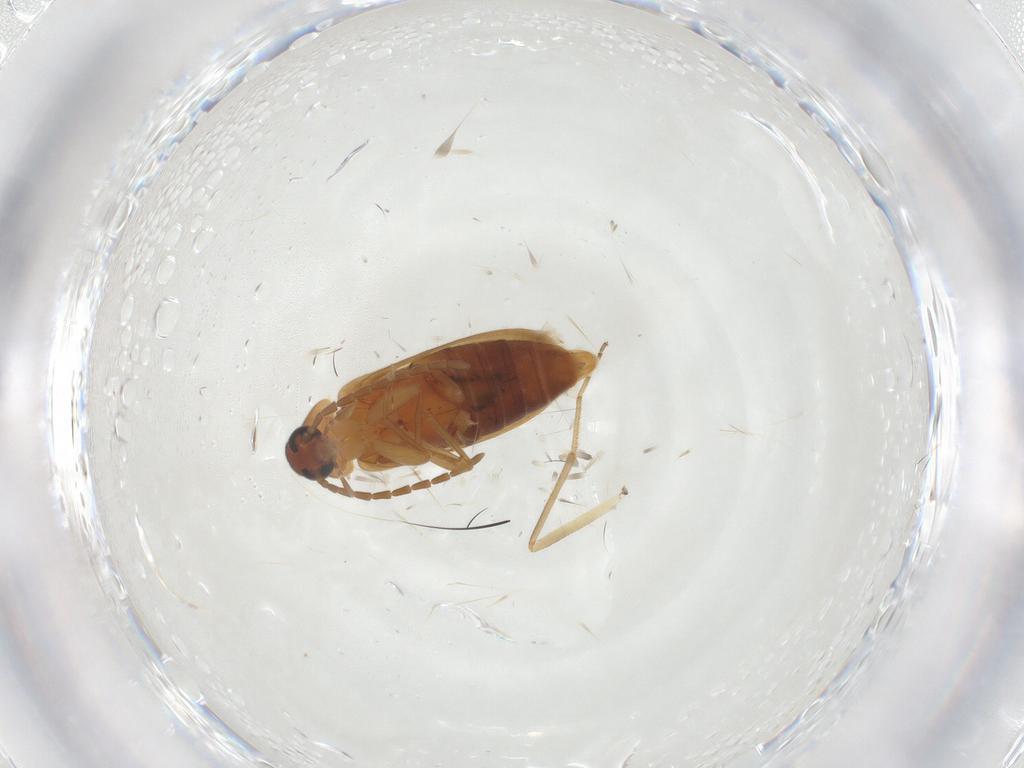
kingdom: Animalia
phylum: Arthropoda
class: Insecta
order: Coleoptera
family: Scraptiidae
